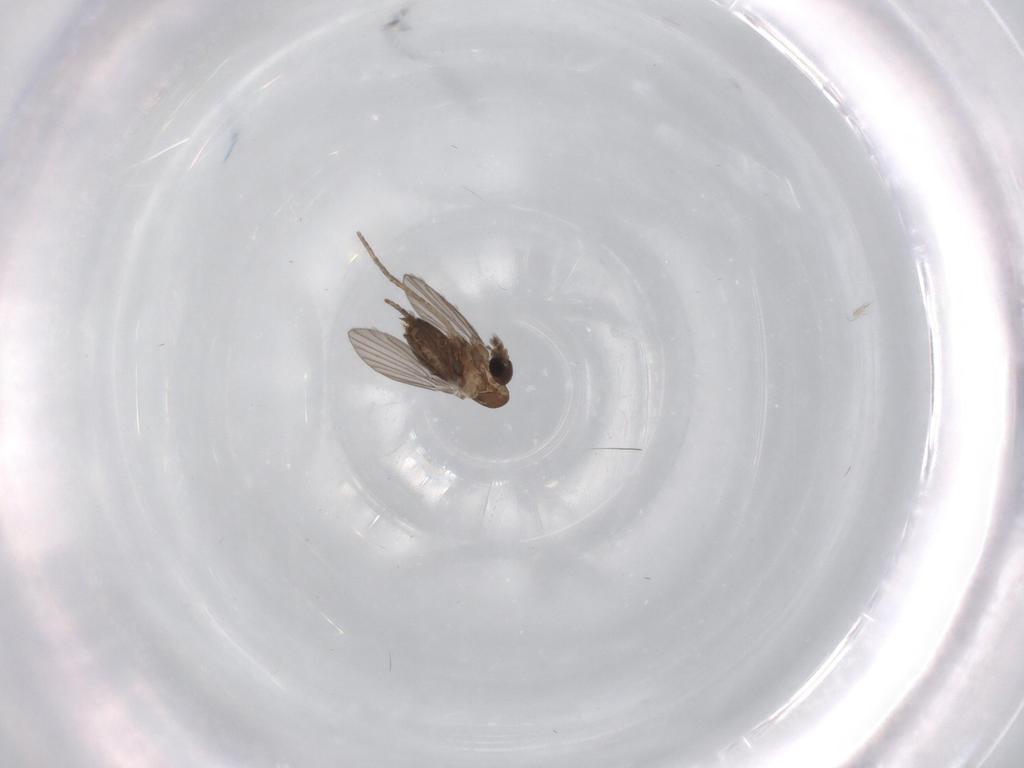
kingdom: Animalia
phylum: Arthropoda
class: Insecta
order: Diptera
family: Psychodidae
